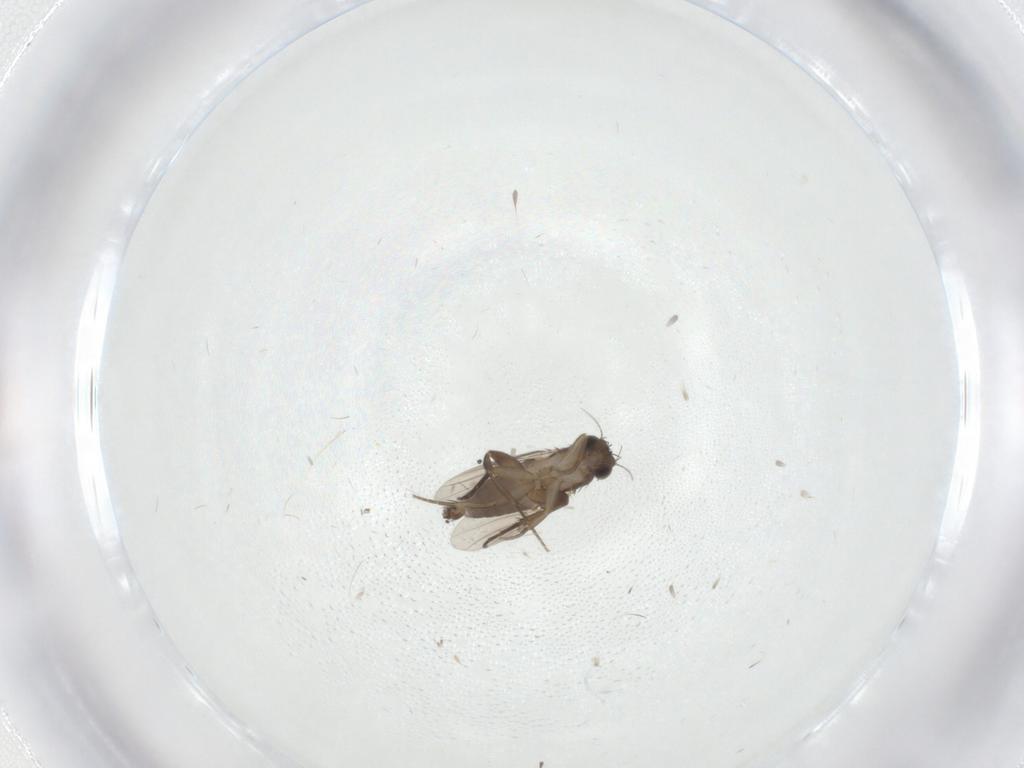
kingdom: Animalia
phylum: Arthropoda
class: Insecta
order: Diptera
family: Phoridae
